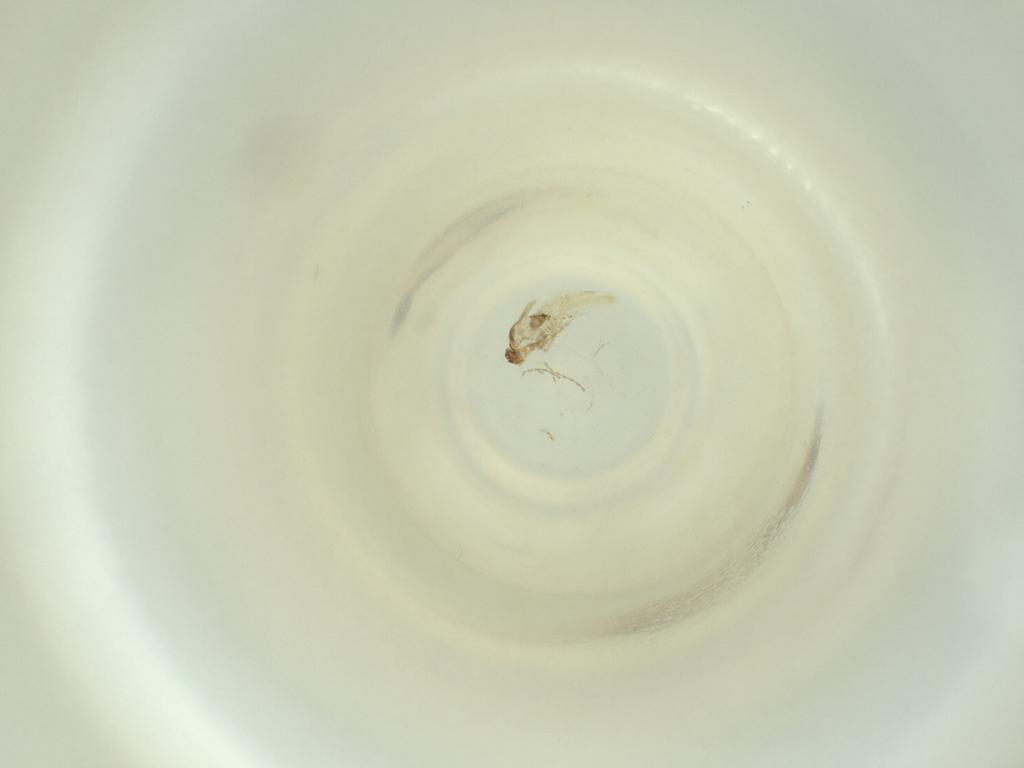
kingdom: Animalia
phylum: Arthropoda
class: Insecta
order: Diptera
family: Cecidomyiidae
